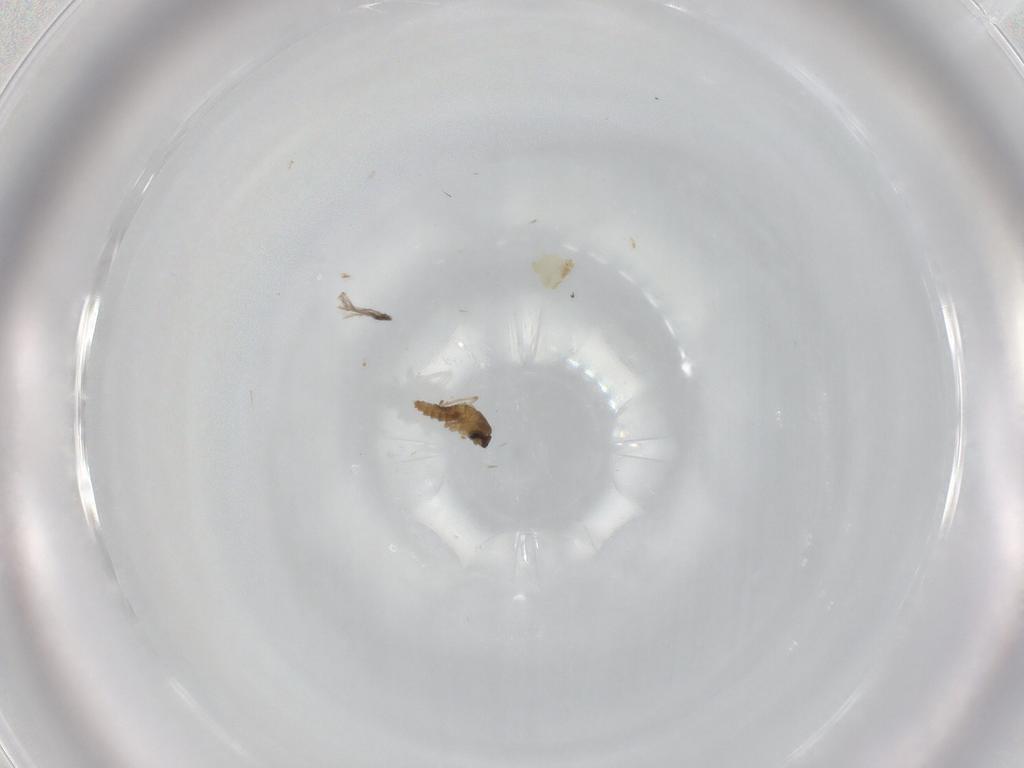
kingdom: Animalia
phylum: Arthropoda
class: Insecta
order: Diptera
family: Cecidomyiidae
